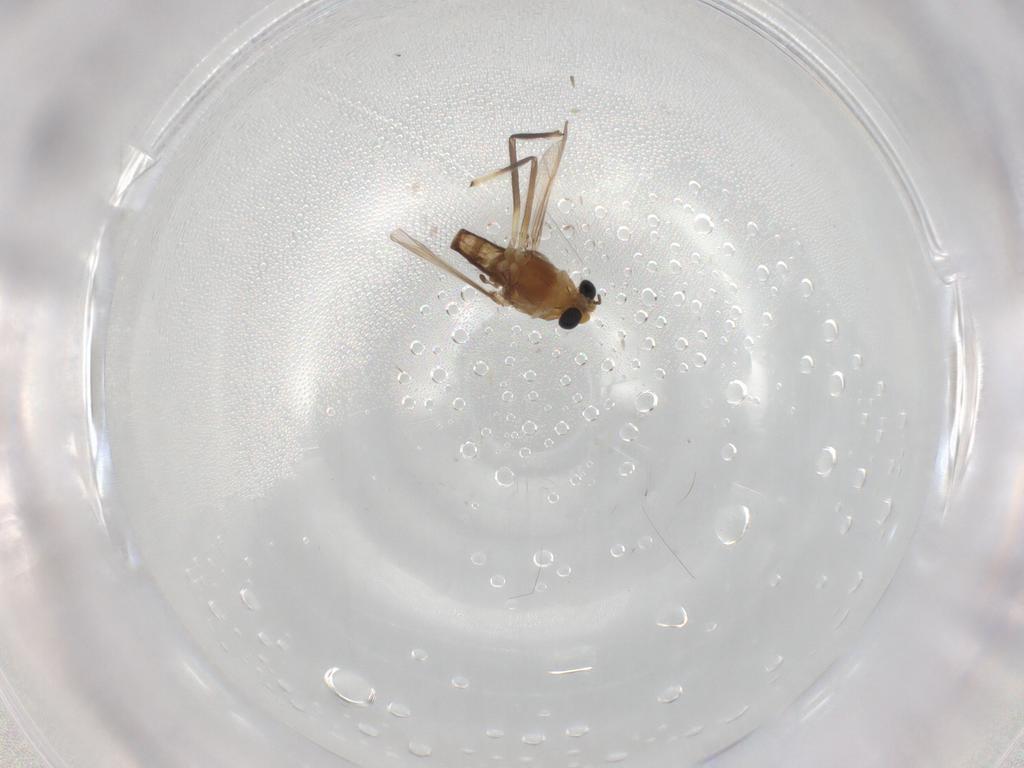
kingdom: Animalia
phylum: Arthropoda
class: Insecta
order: Diptera
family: Chironomidae
